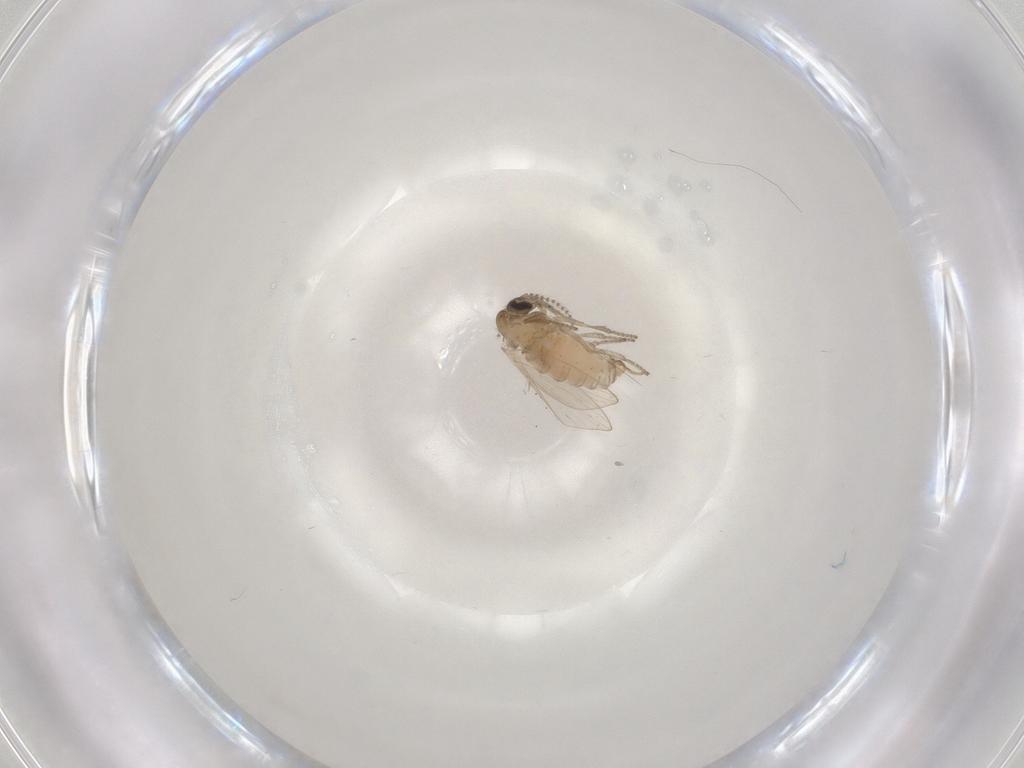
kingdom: Animalia
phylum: Arthropoda
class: Insecta
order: Diptera
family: Psychodidae
